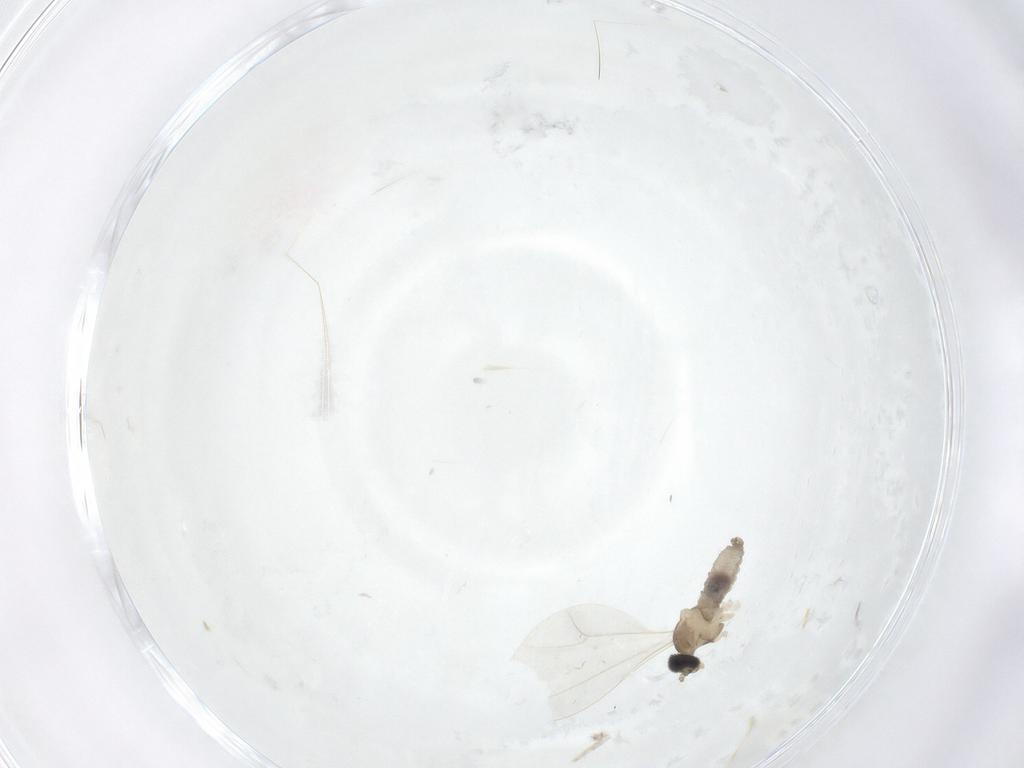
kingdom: Animalia
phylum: Arthropoda
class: Insecta
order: Diptera
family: Cecidomyiidae
